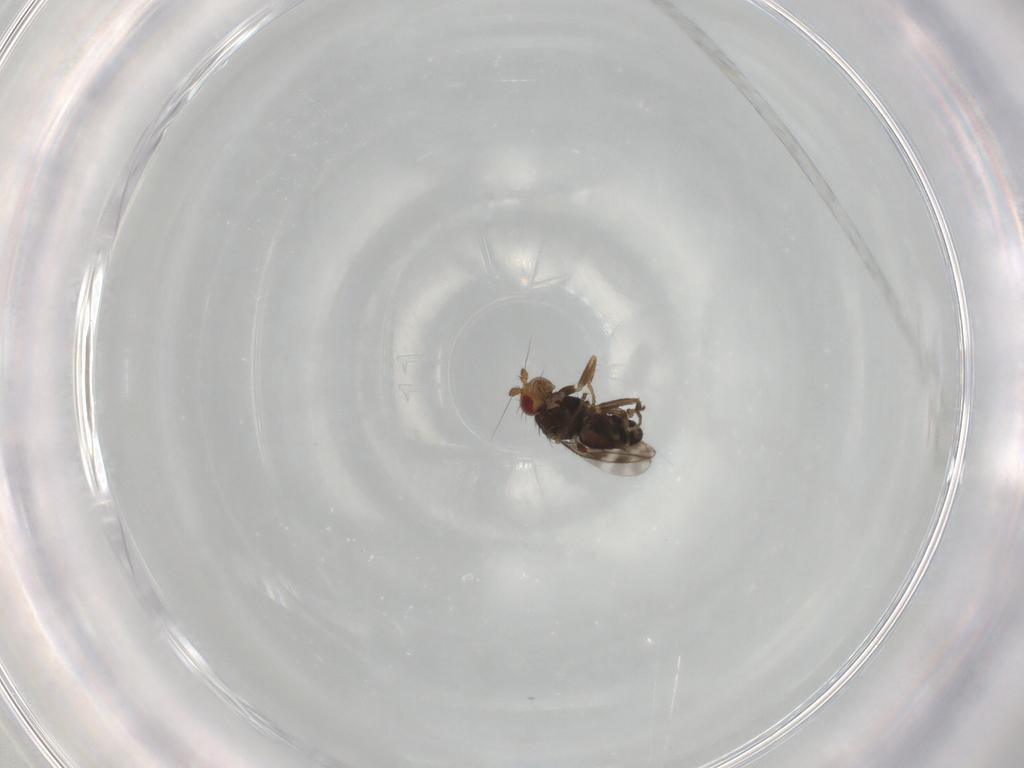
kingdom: Animalia
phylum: Arthropoda
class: Insecta
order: Diptera
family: Sphaeroceridae
